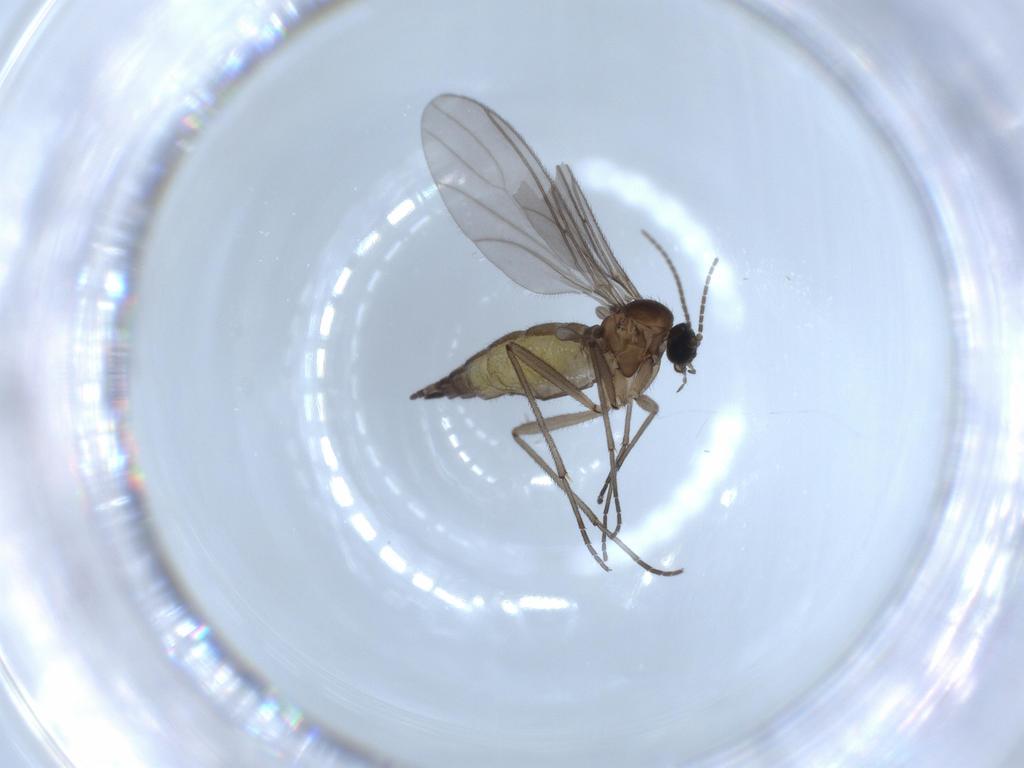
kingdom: Animalia
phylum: Arthropoda
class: Insecta
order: Diptera
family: Sciaridae
